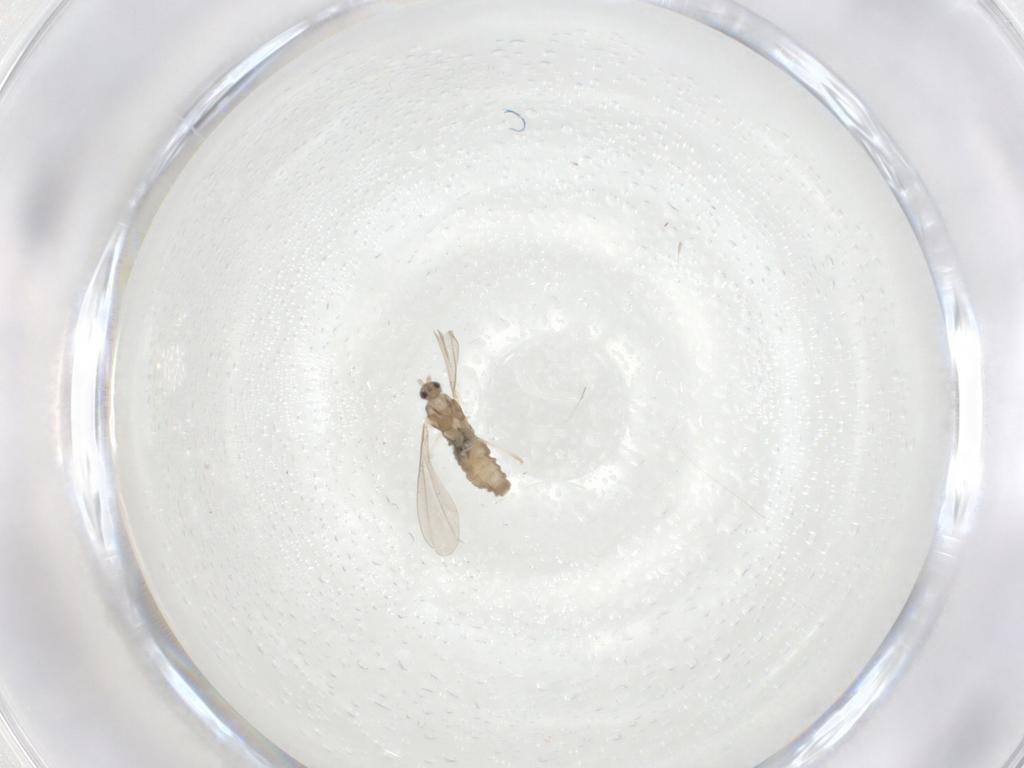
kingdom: Animalia
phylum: Arthropoda
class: Insecta
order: Diptera
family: Cecidomyiidae
